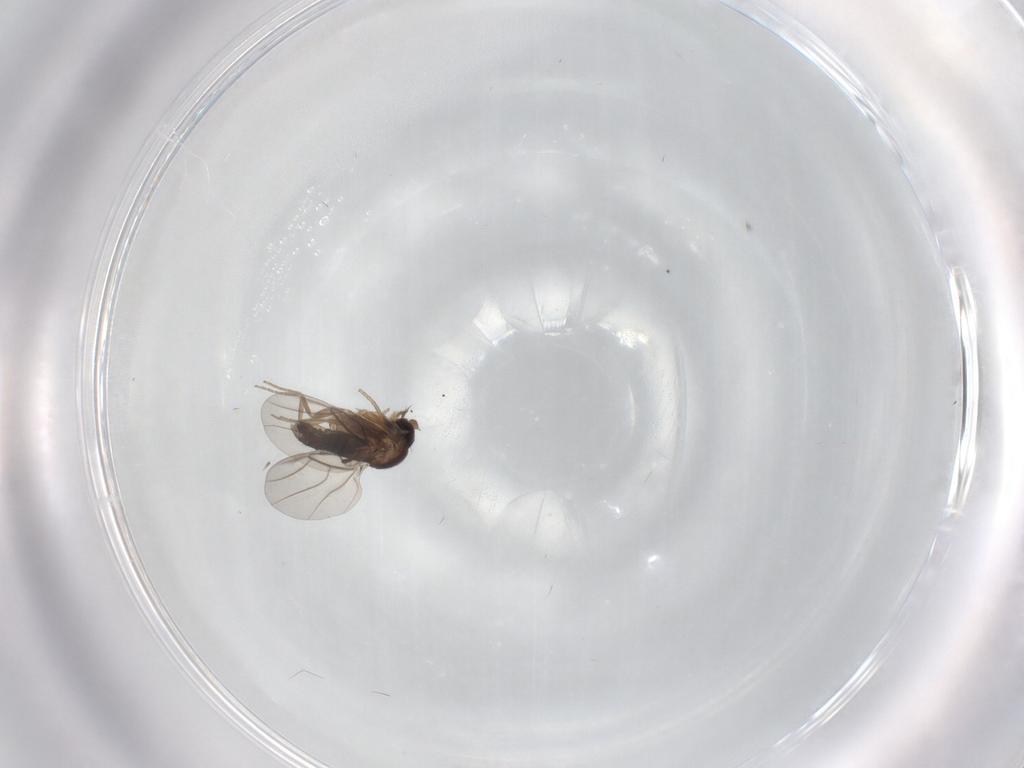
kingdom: Animalia
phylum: Arthropoda
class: Insecta
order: Diptera
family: Phoridae
